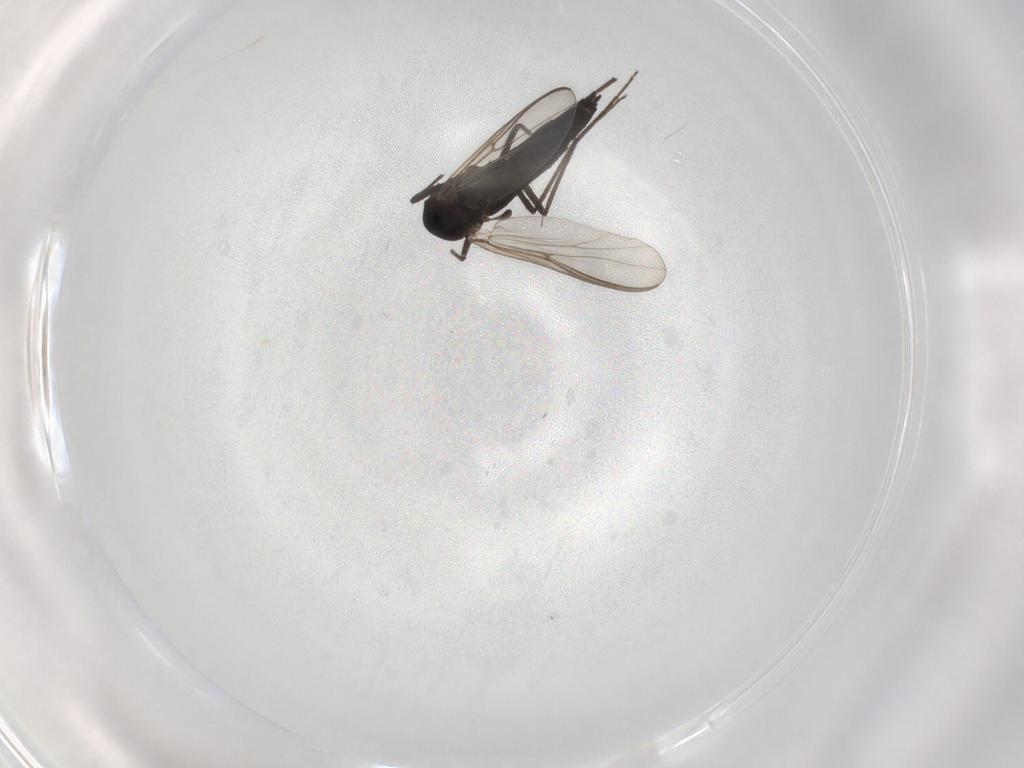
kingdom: Animalia
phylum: Arthropoda
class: Insecta
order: Diptera
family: Chironomidae
